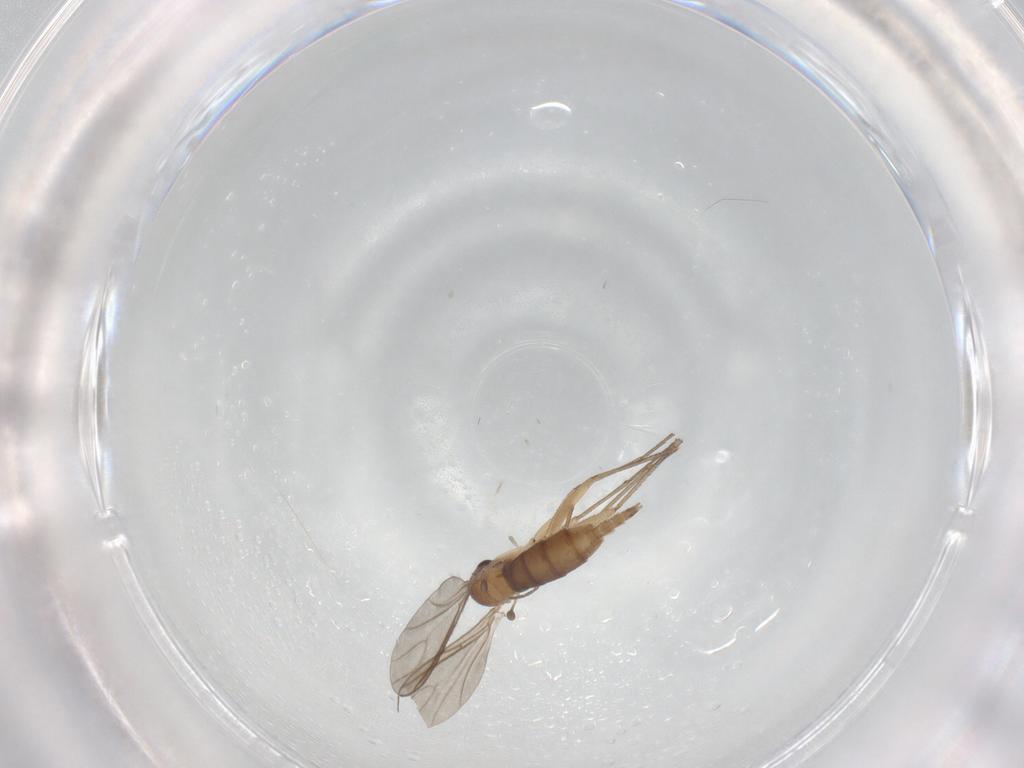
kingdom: Animalia
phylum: Arthropoda
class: Insecta
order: Diptera
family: Sciaridae
